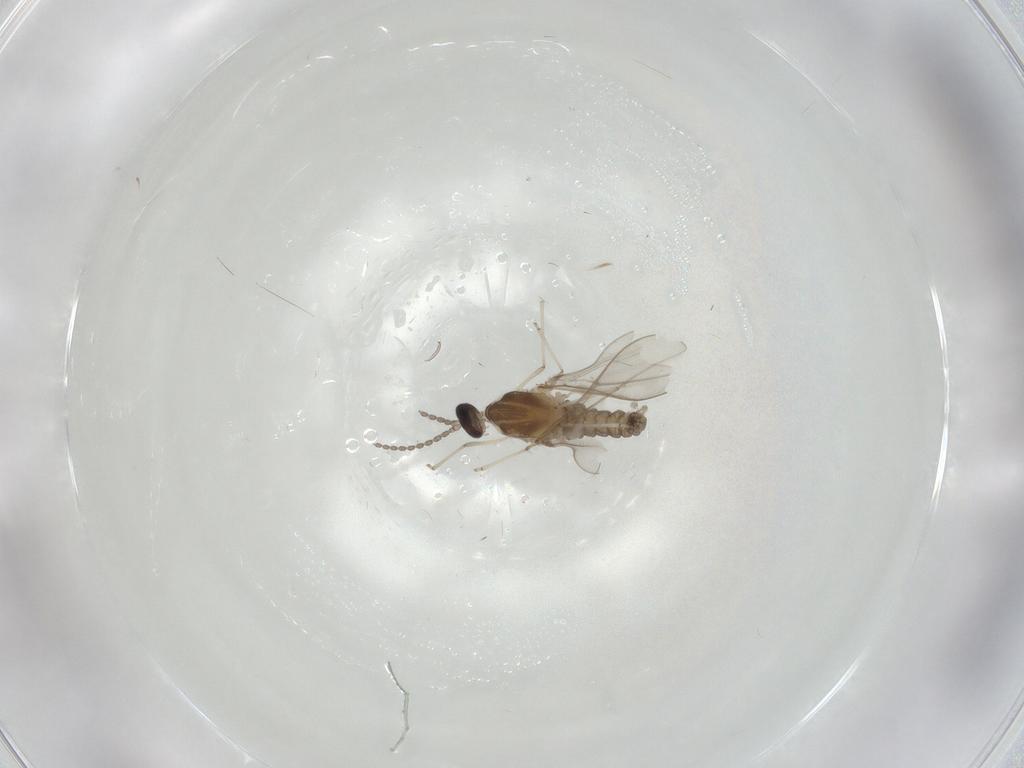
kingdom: Animalia
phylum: Arthropoda
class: Insecta
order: Diptera
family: Cecidomyiidae
